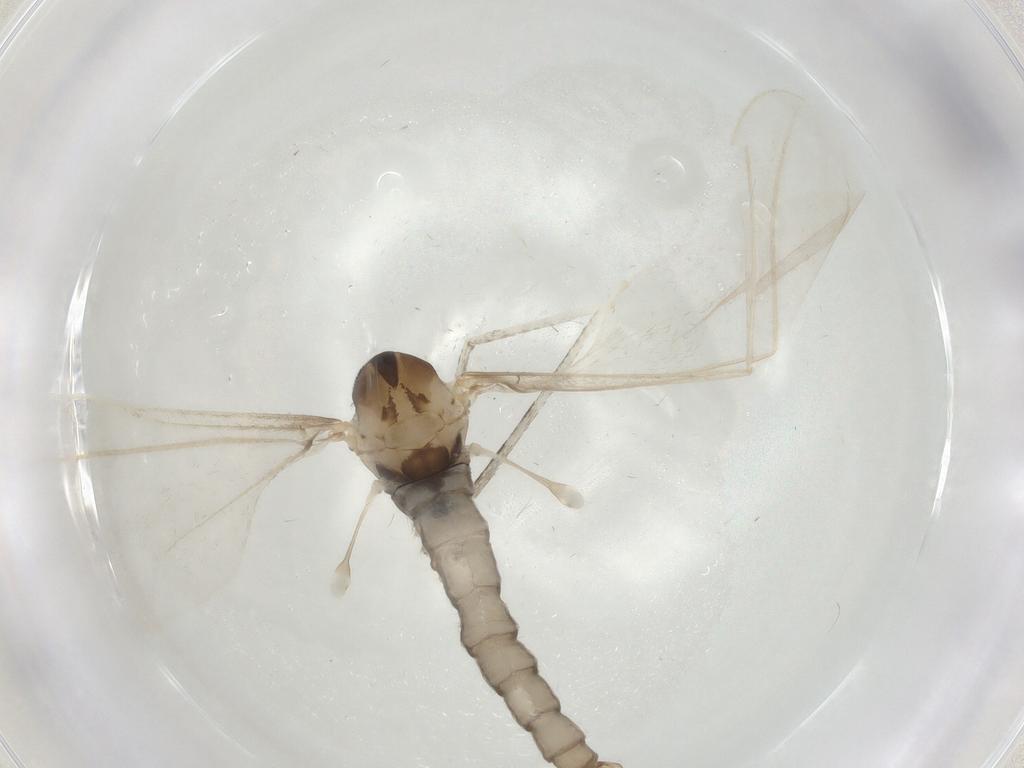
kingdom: Animalia
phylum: Arthropoda
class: Insecta
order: Diptera
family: Cecidomyiidae
